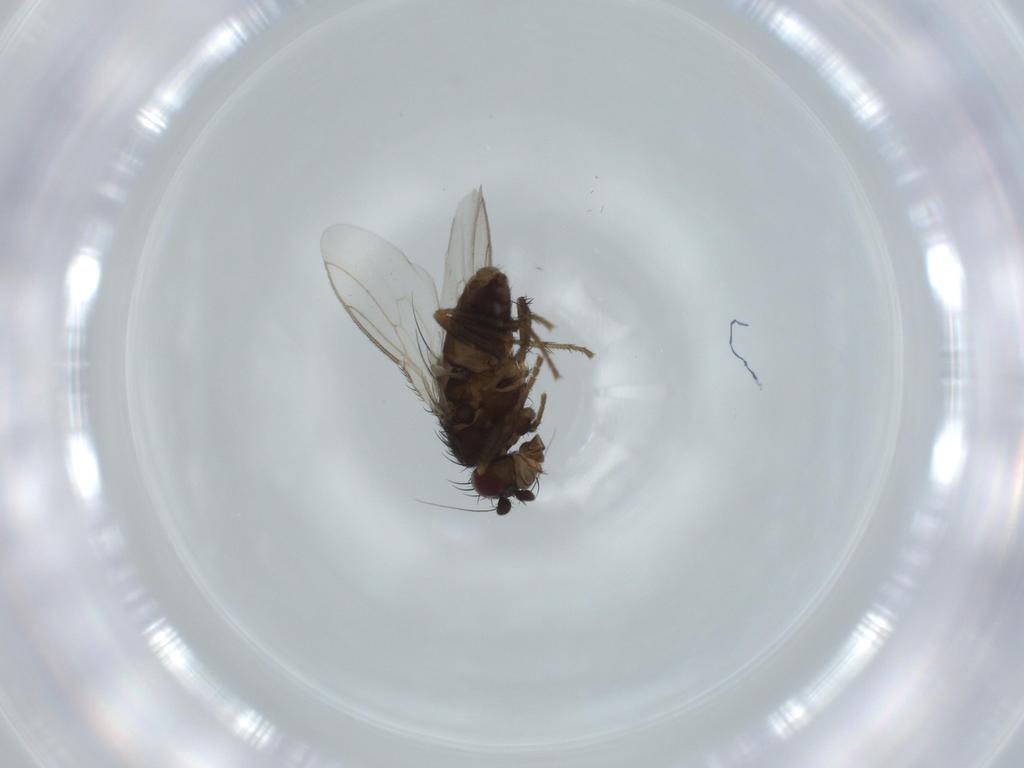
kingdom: Animalia
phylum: Arthropoda
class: Insecta
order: Diptera
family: Sphaeroceridae
